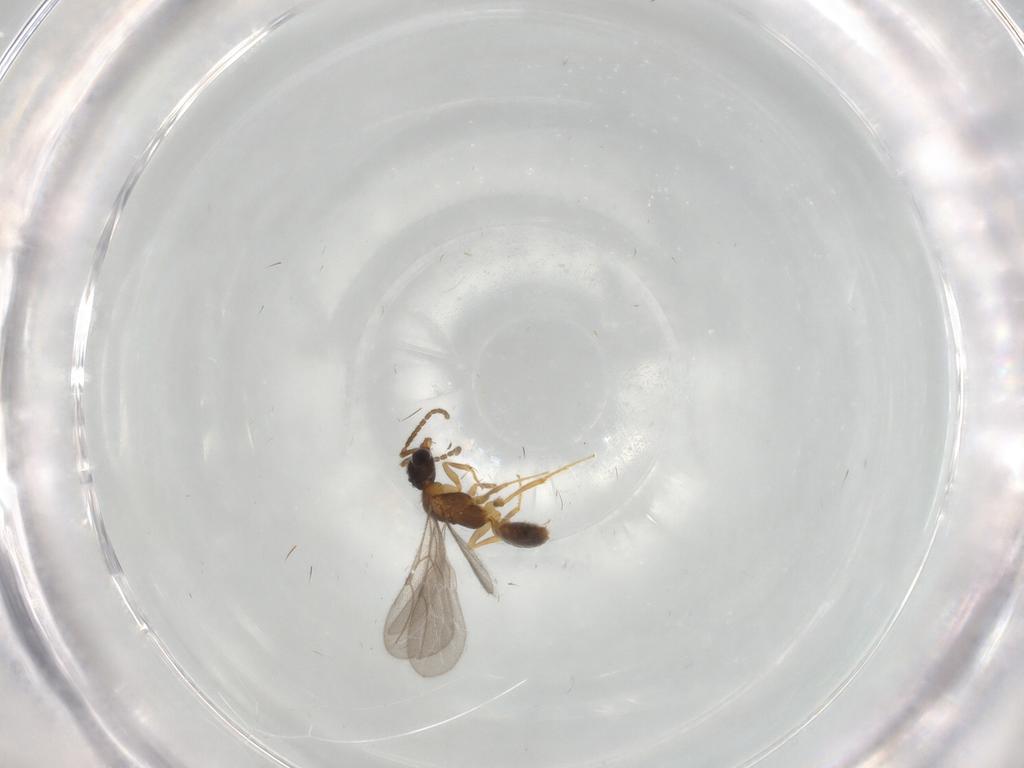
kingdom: Animalia
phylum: Arthropoda
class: Insecta
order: Hymenoptera
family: Bethylidae
